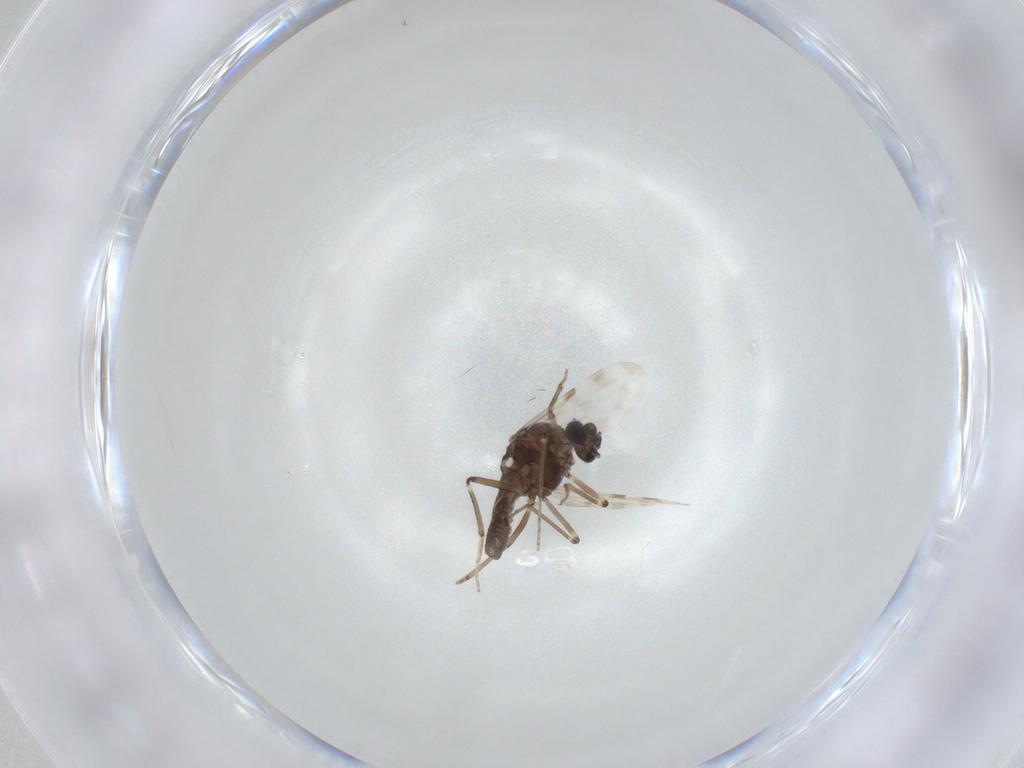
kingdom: Animalia
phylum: Arthropoda
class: Insecta
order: Diptera
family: Ceratopogonidae
